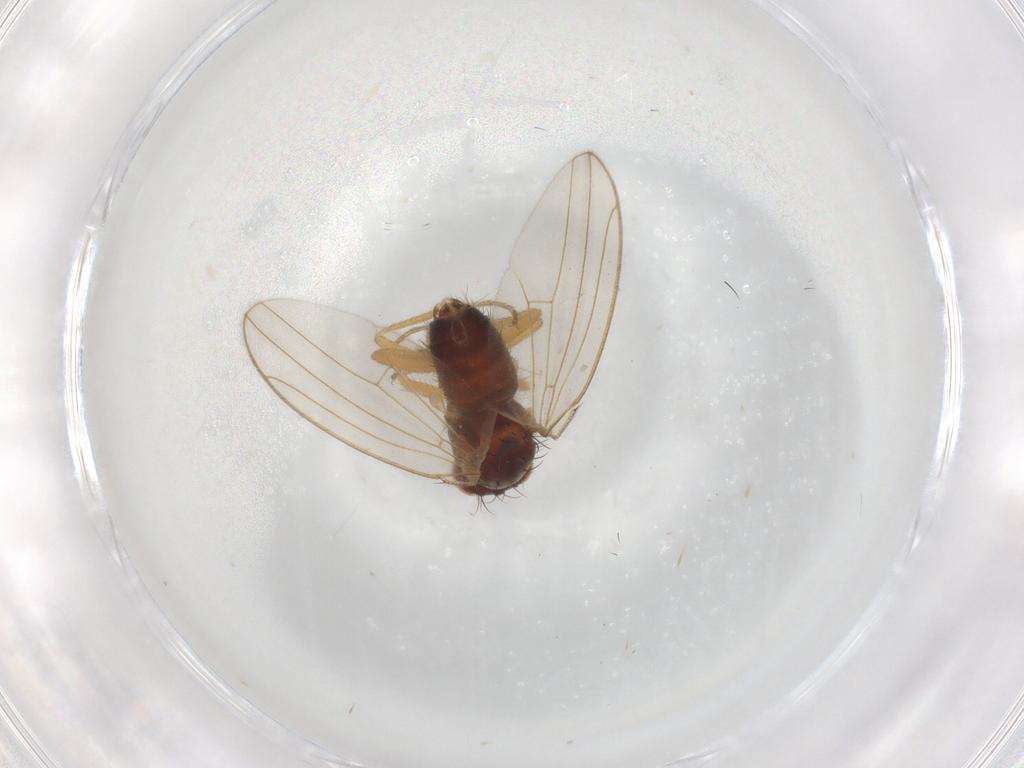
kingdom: Animalia
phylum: Arthropoda
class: Insecta
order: Diptera
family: Drosophilidae
